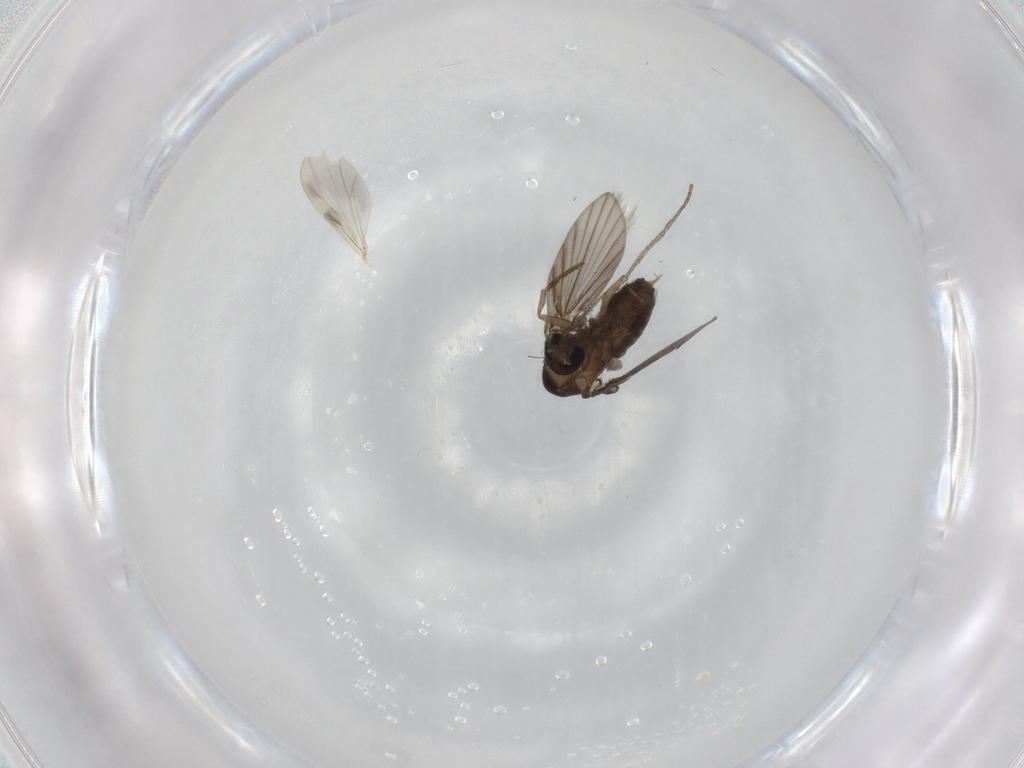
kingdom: Animalia
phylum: Arthropoda
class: Insecta
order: Diptera
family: Psychodidae
